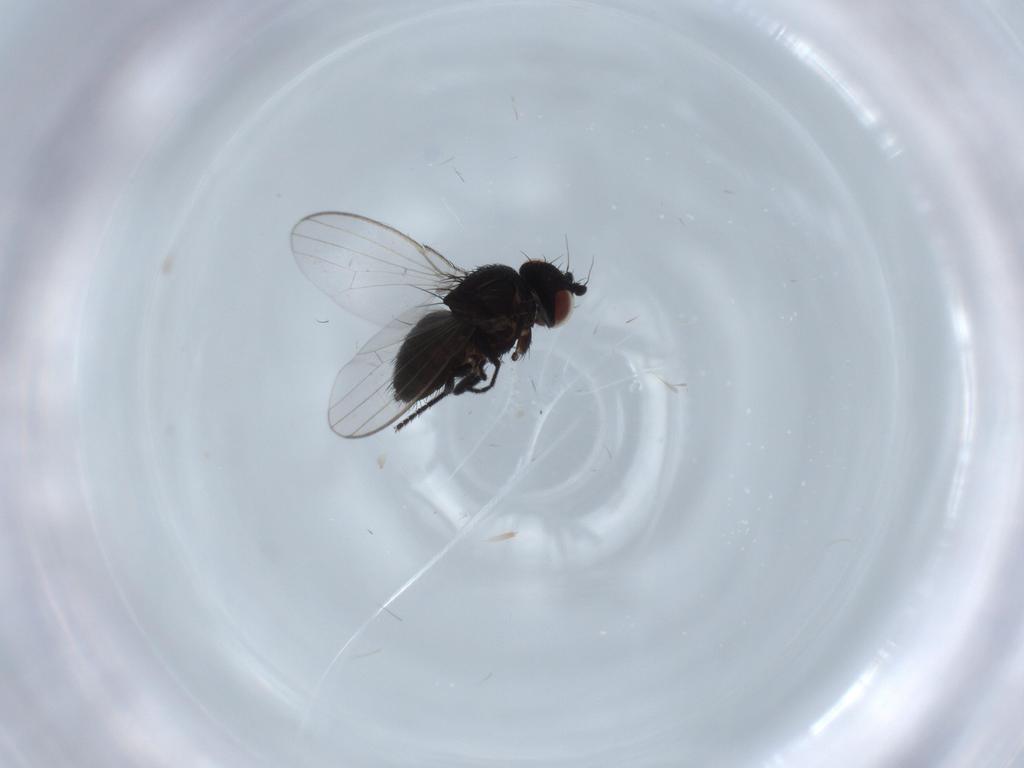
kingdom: Animalia
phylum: Arthropoda
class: Insecta
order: Diptera
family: Milichiidae
